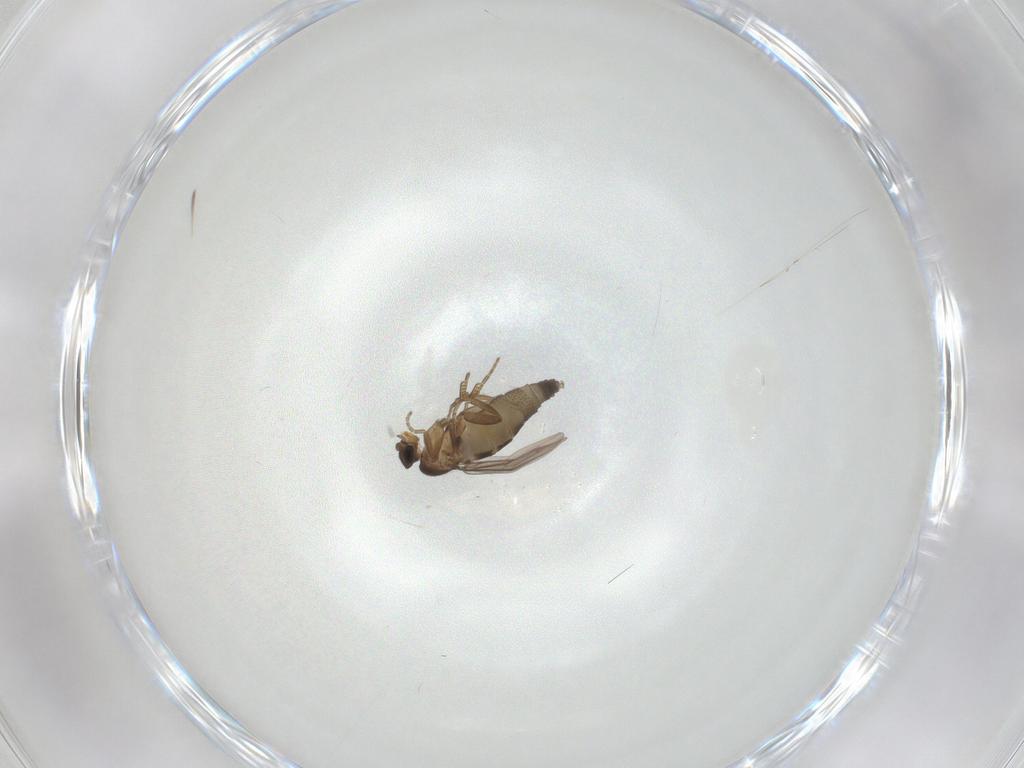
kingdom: Animalia
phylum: Arthropoda
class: Insecta
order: Diptera
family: Phoridae
